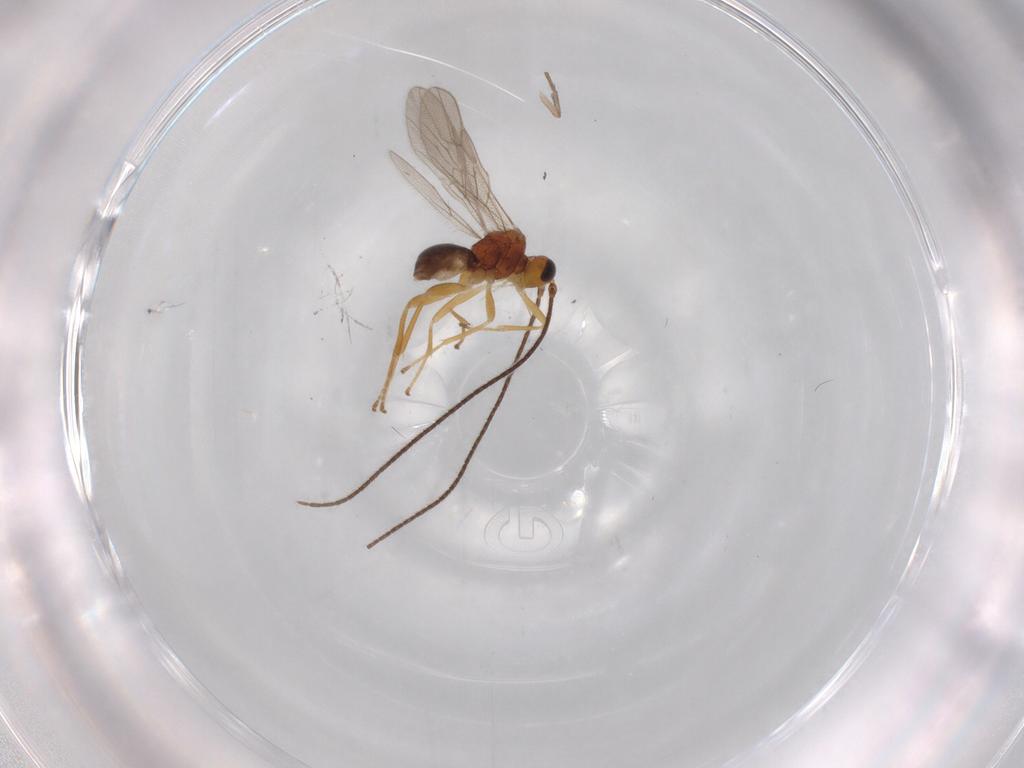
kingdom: Animalia
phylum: Arthropoda
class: Insecta
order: Hymenoptera
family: Braconidae
